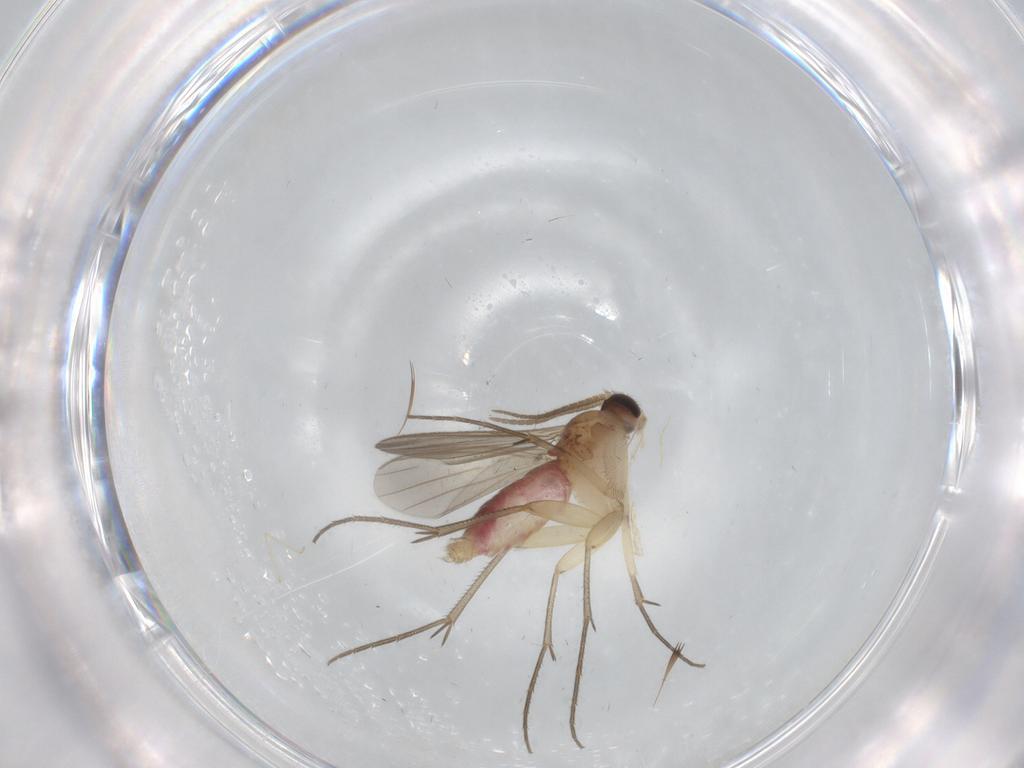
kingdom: Animalia
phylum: Arthropoda
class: Insecta
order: Diptera
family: Mycetophilidae
